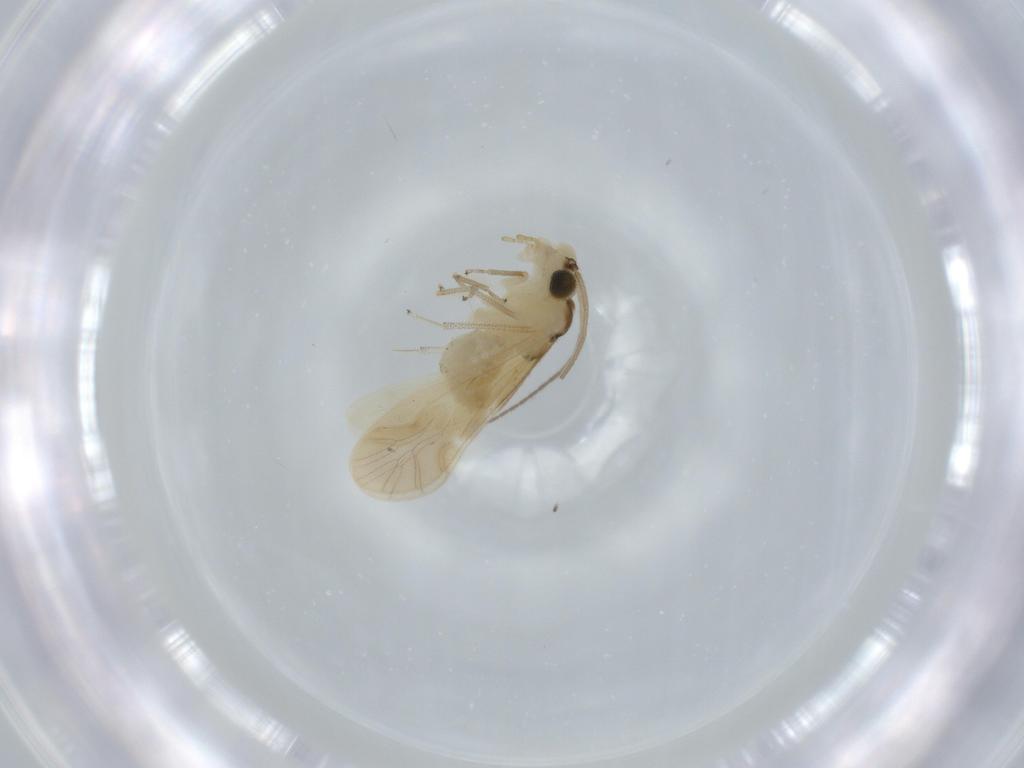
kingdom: Animalia
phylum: Arthropoda
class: Insecta
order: Psocodea
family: Caeciliusidae
